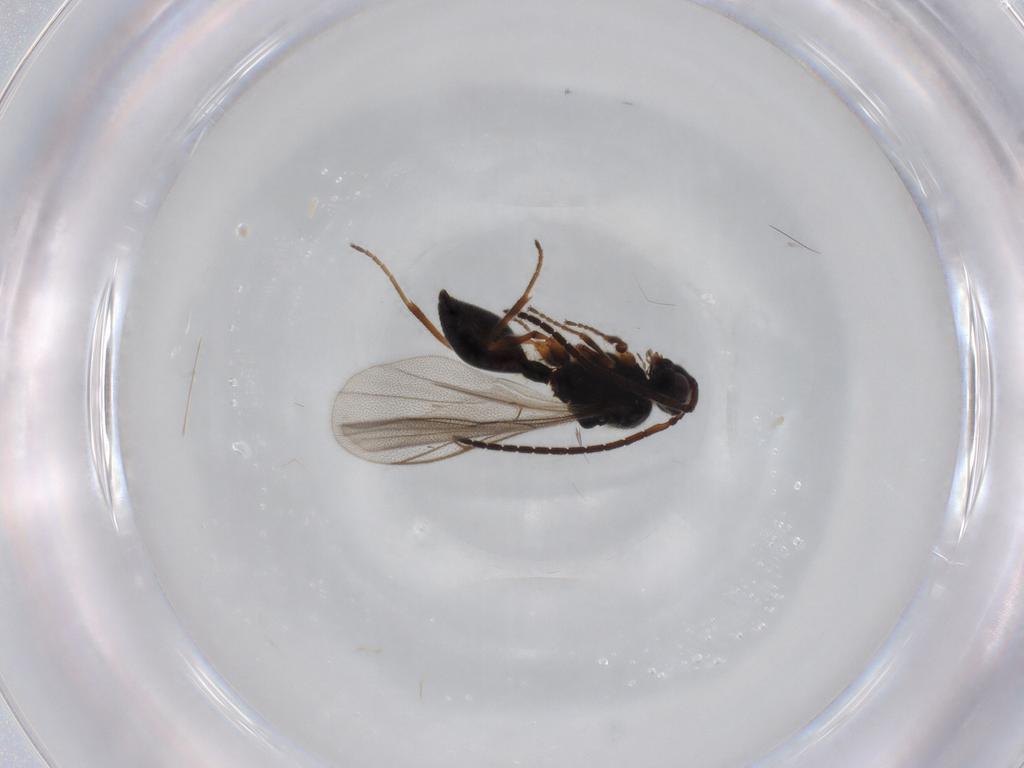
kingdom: Animalia
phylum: Arthropoda
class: Insecta
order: Hymenoptera
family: Diapriidae
